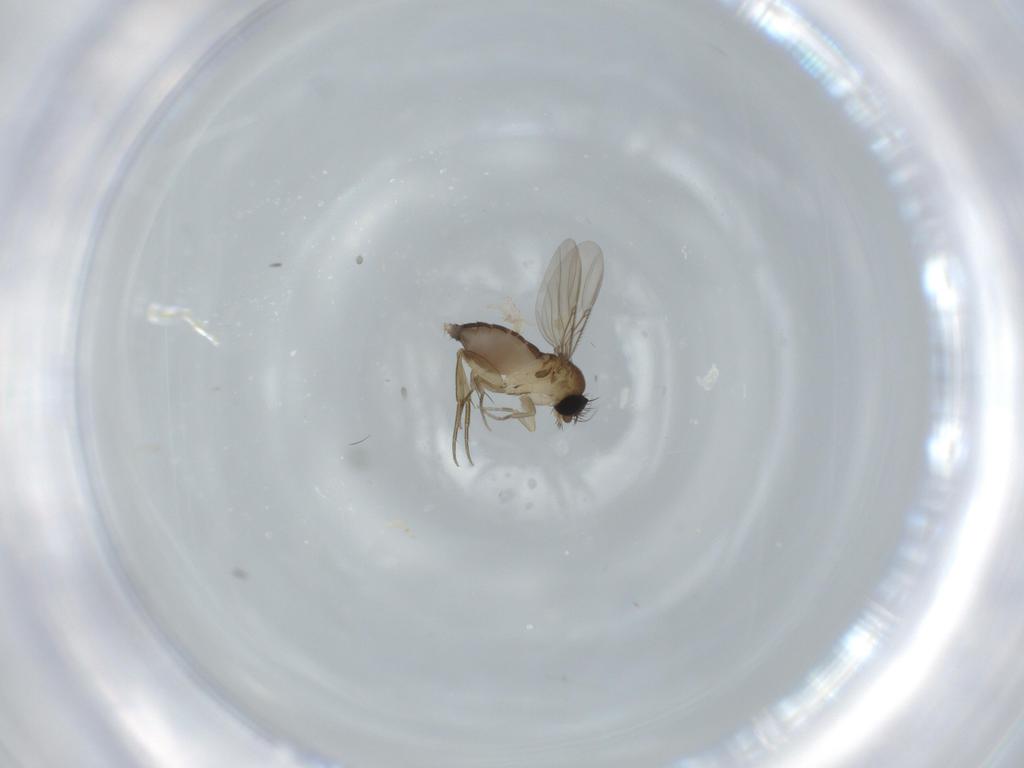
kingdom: Animalia
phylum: Arthropoda
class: Insecta
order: Diptera
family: Phoridae
